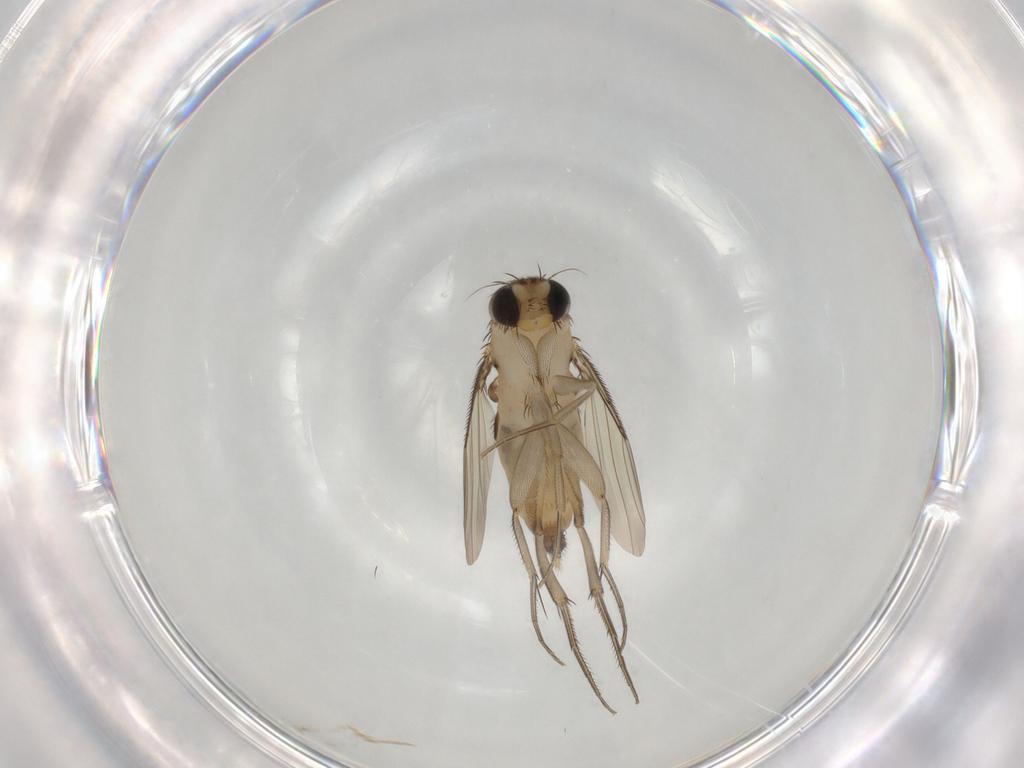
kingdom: Animalia
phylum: Arthropoda
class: Insecta
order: Diptera
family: Phoridae
